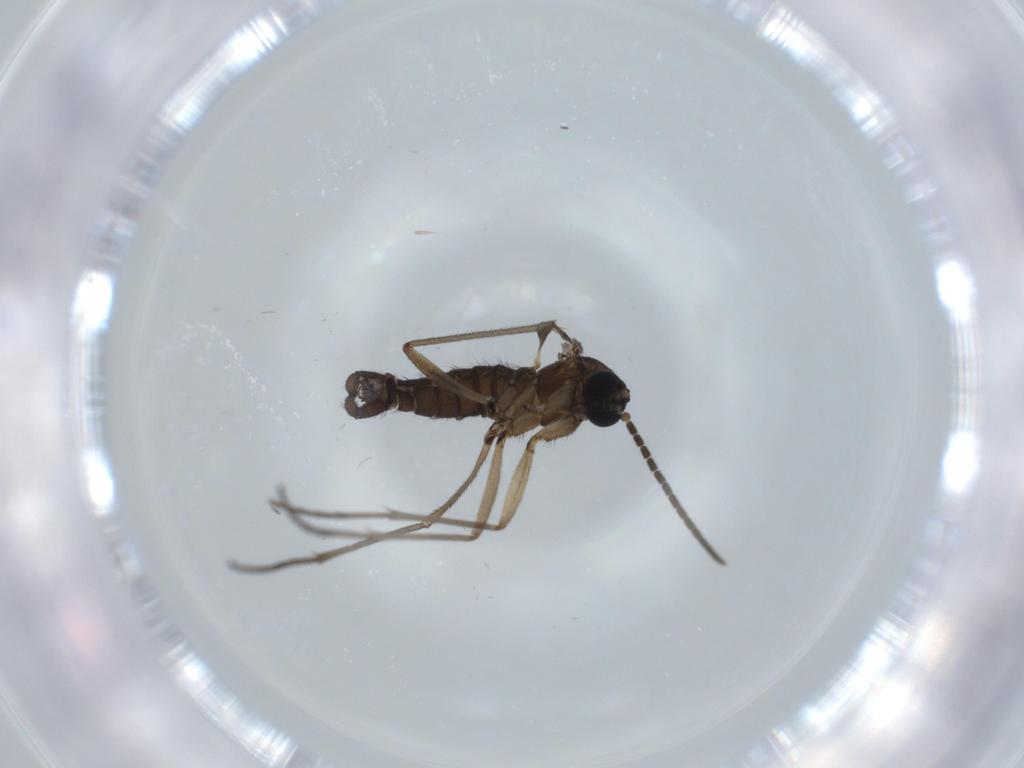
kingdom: Animalia
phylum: Arthropoda
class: Insecta
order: Diptera
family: Sciaridae
